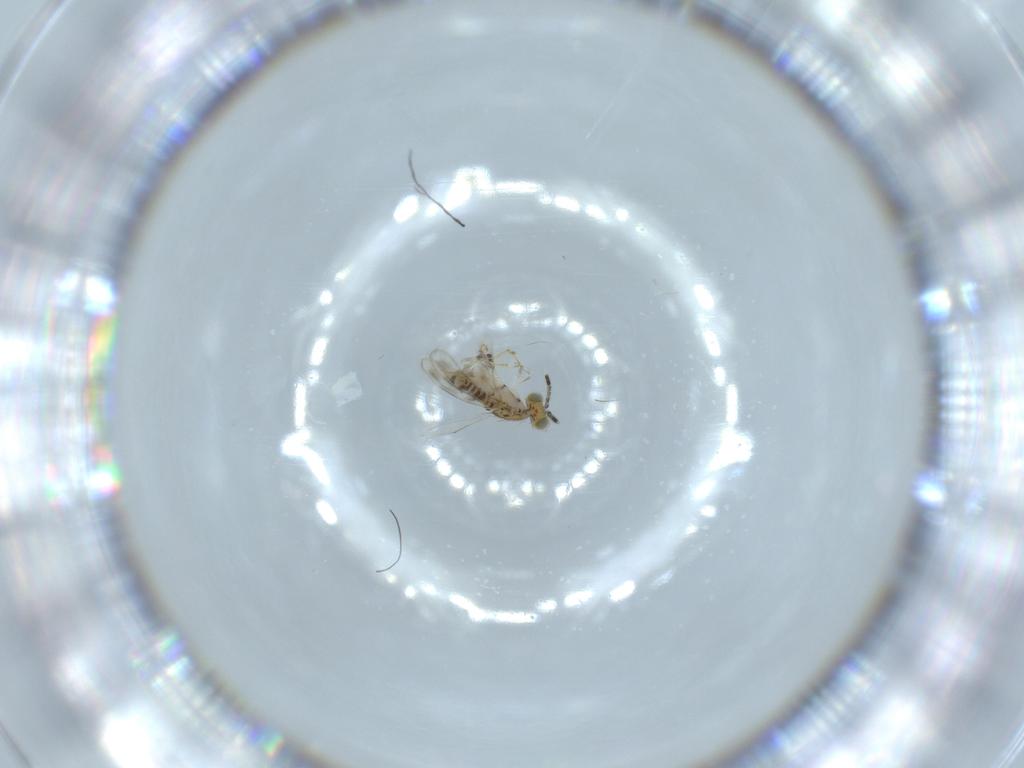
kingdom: Animalia
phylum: Arthropoda
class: Insecta
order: Hymenoptera
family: Aphelinidae
